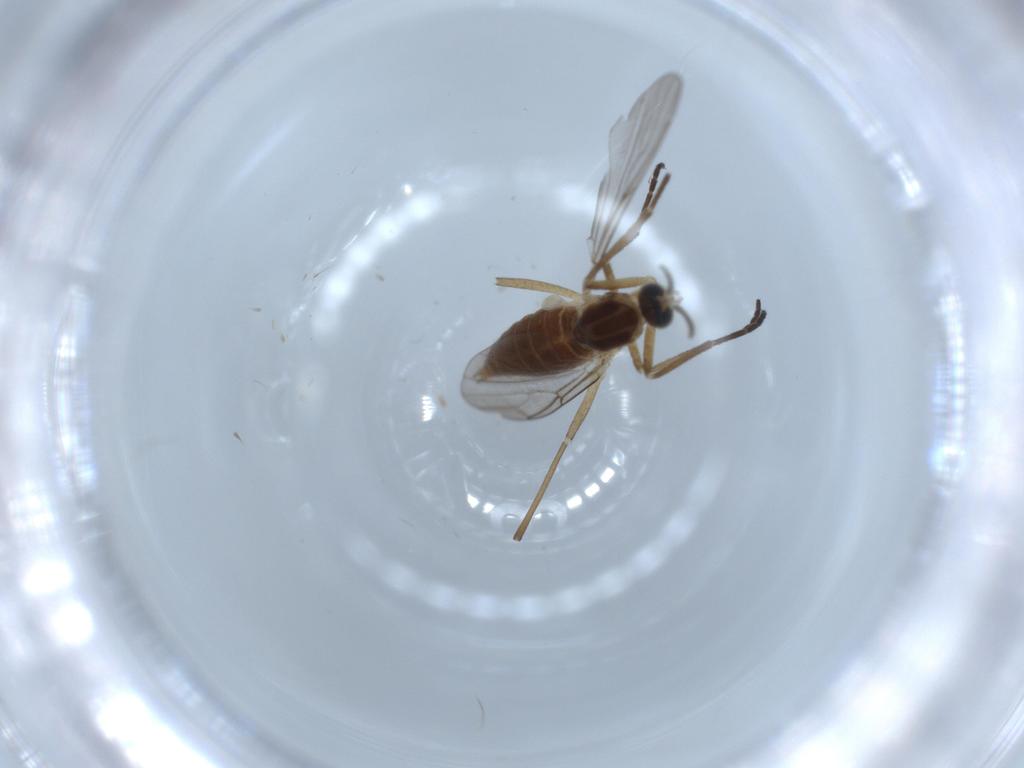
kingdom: Animalia
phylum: Arthropoda
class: Insecta
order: Diptera
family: Cecidomyiidae
